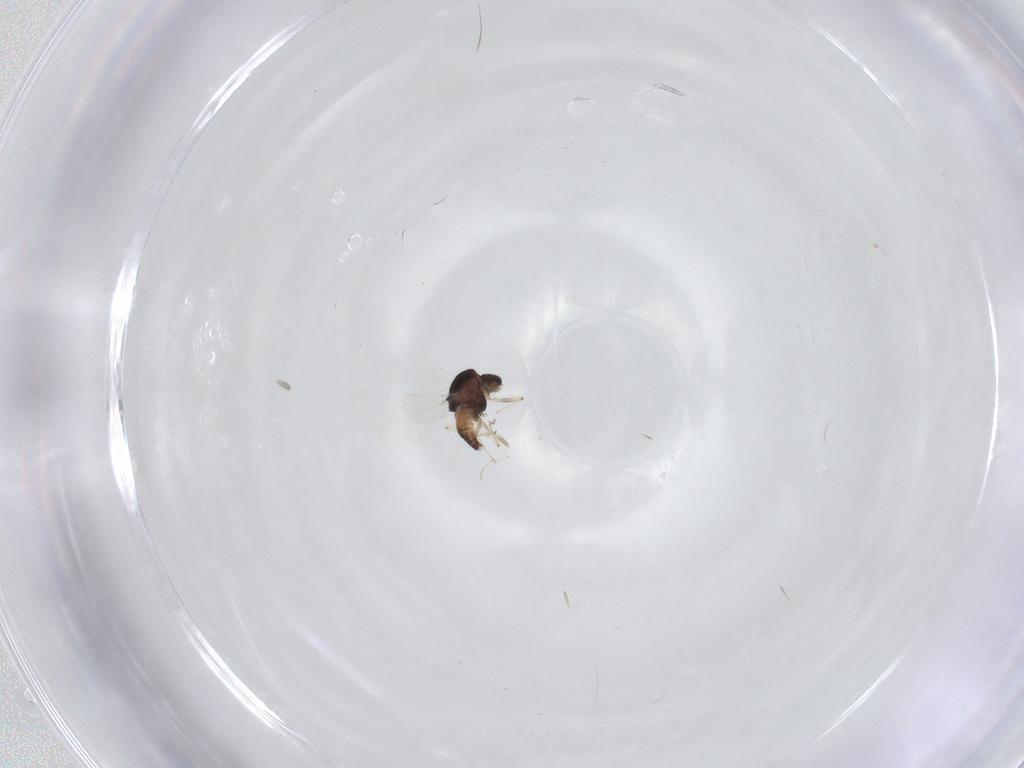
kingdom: Animalia
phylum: Arthropoda
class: Insecta
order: Diptera
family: Chironomidae
